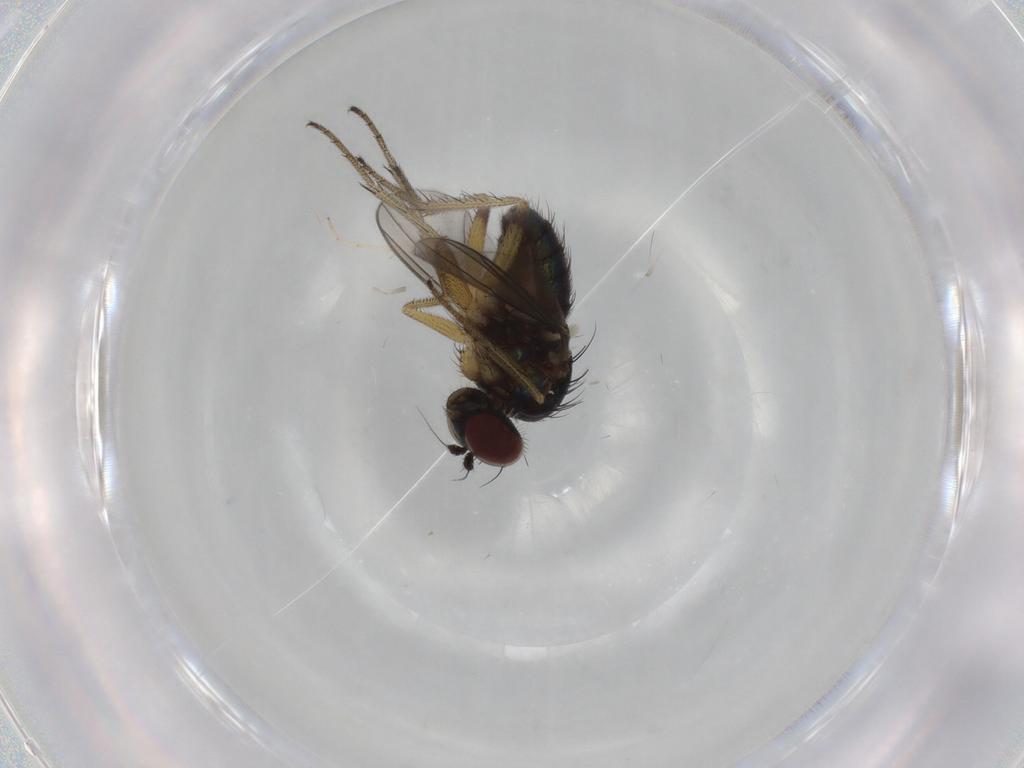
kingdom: Animalia
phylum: Arthropoda
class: Insecta
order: Diptera
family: Dolichopodidae
